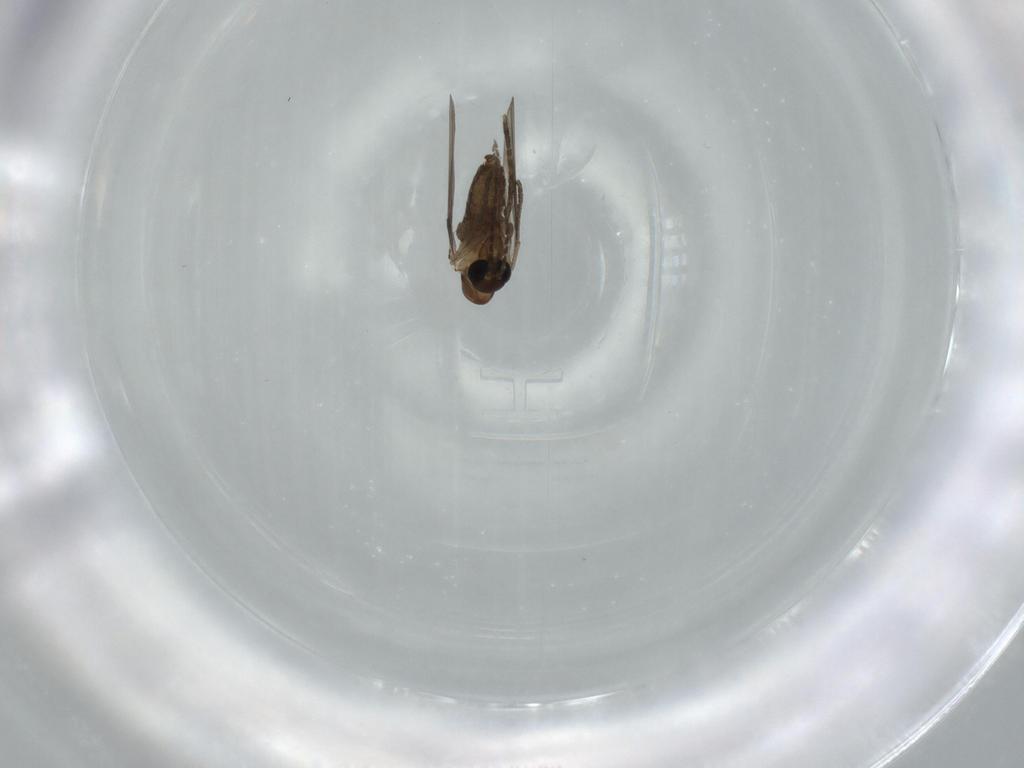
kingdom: Animalia
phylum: Arthropoda
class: Insecta
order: Diptera
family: Psychodidae
